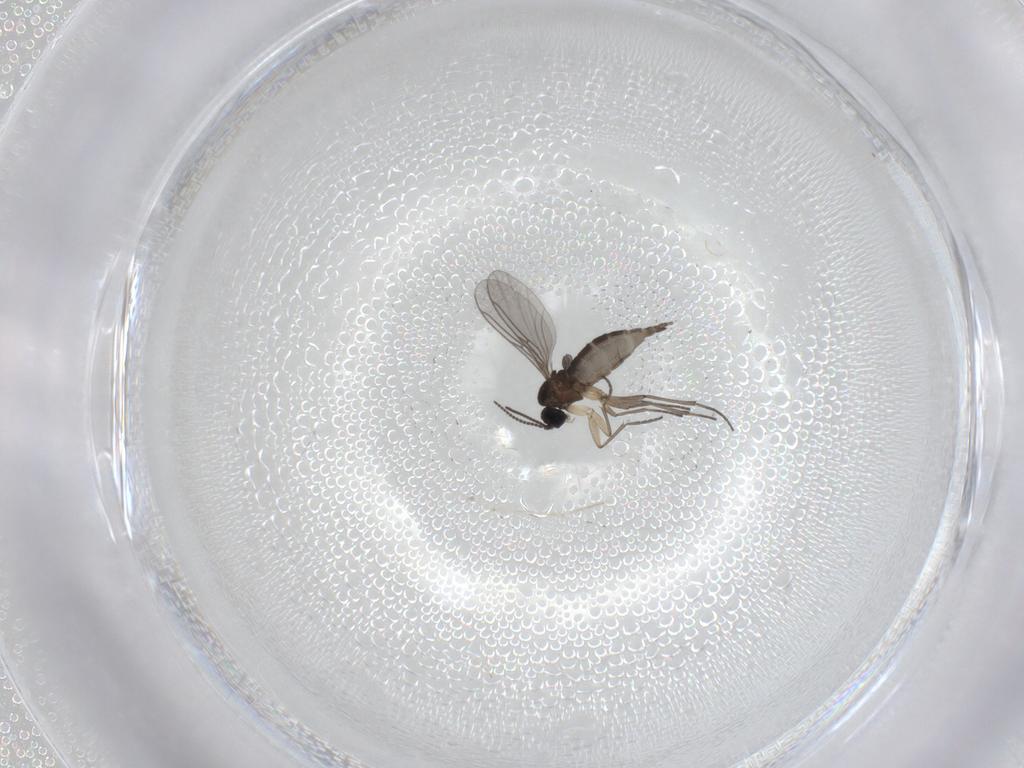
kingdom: Animalia
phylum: Arthropoda
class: Insecta
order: Diptera
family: Sciaridae
